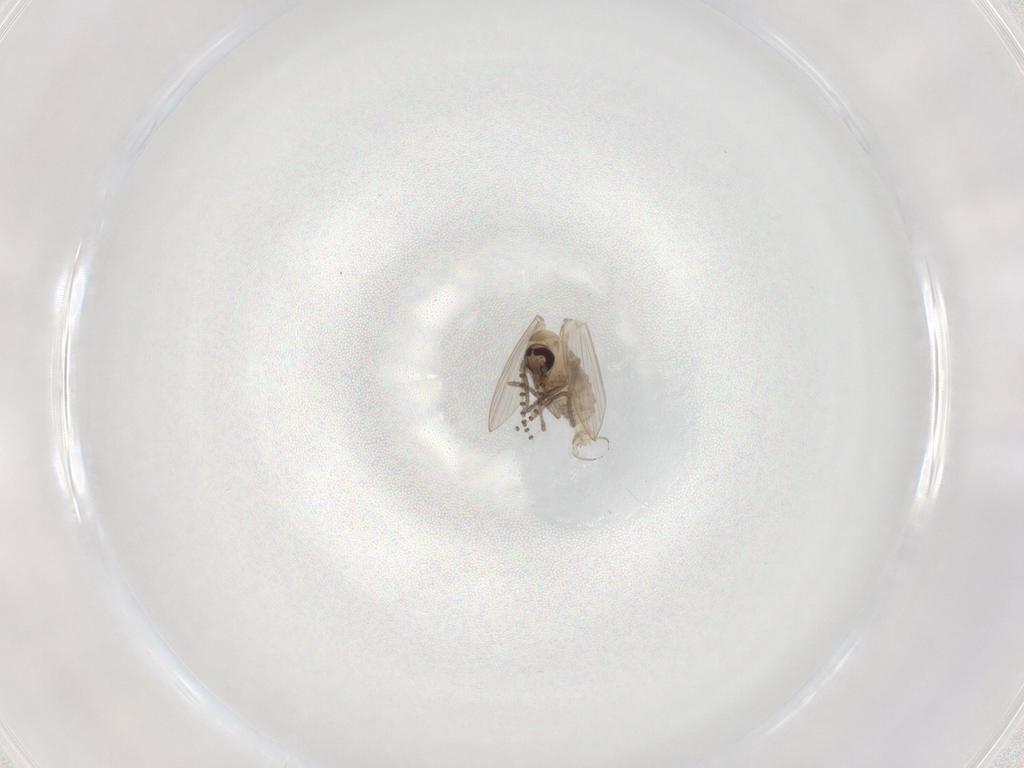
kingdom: Animalia
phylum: Arthropoda
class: Insecta
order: Diptera
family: Psychodidae
